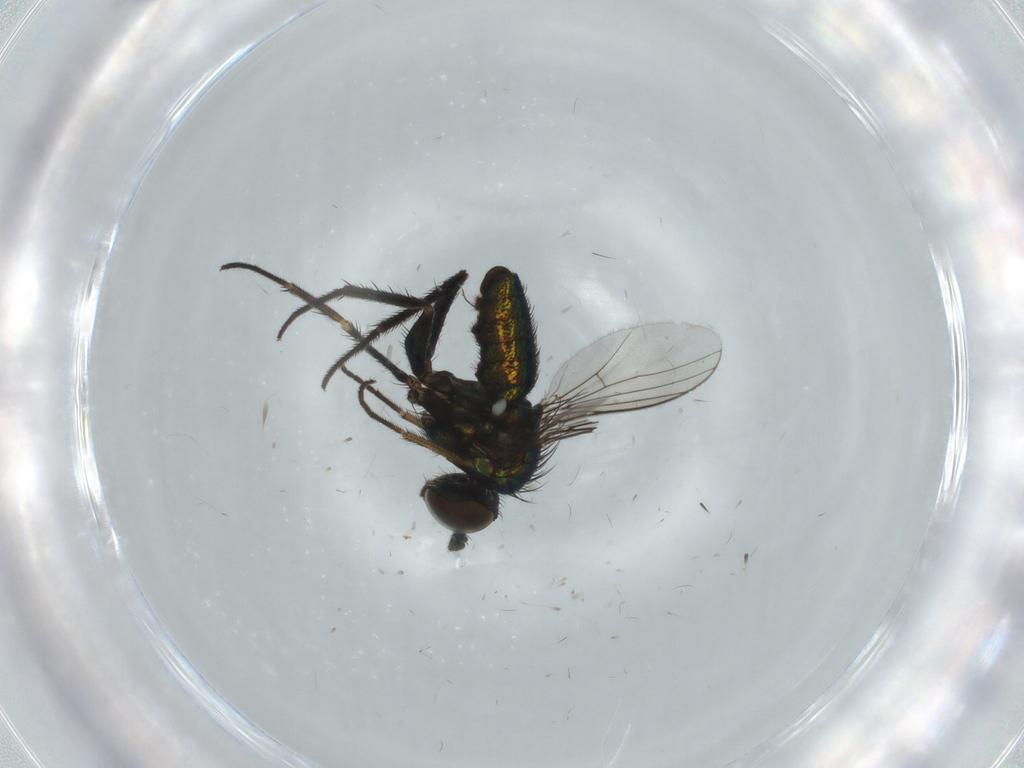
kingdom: Animalia
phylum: Arthropoda
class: Insecta
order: Diptera
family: Dolichopodidae
